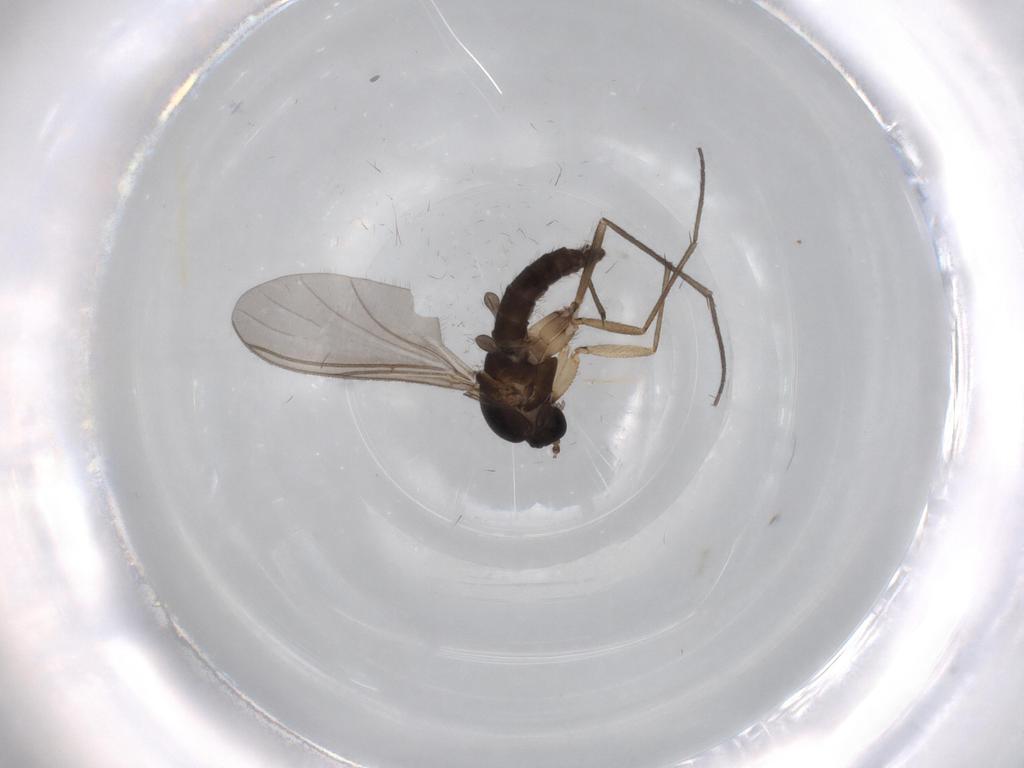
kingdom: Animalia
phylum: Arthropoda
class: Insecta
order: Diptera
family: Limoniidae
